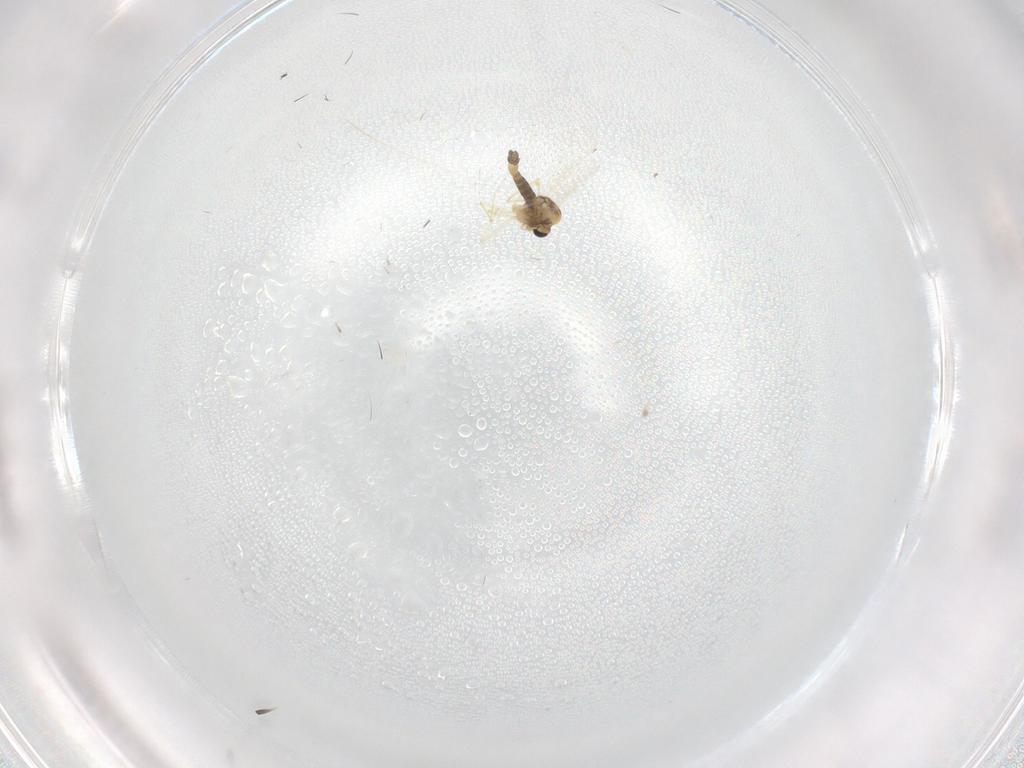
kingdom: Animalia
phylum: Arthropoda
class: Insecta
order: Diptera
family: Chironomidae
